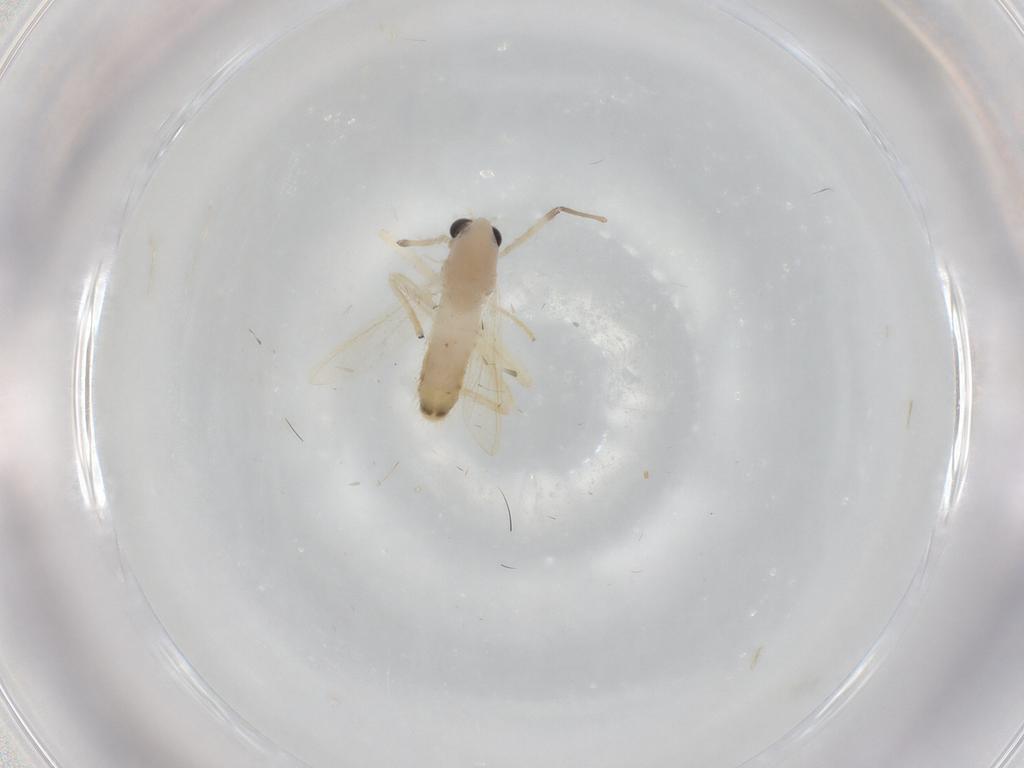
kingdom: Animalia
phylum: Arthropoda
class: Insecta
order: Diptera
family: Chironomidae
